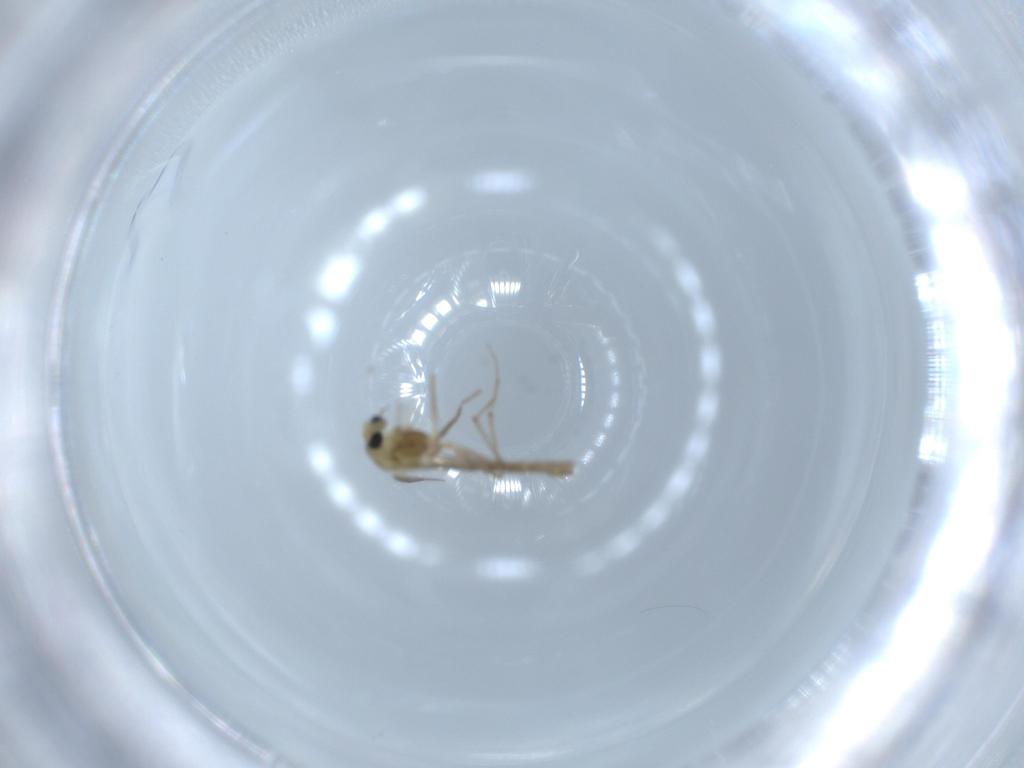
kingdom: Animalia
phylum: Arthropoda
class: Insecta
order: Diptera
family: Chironomidae
